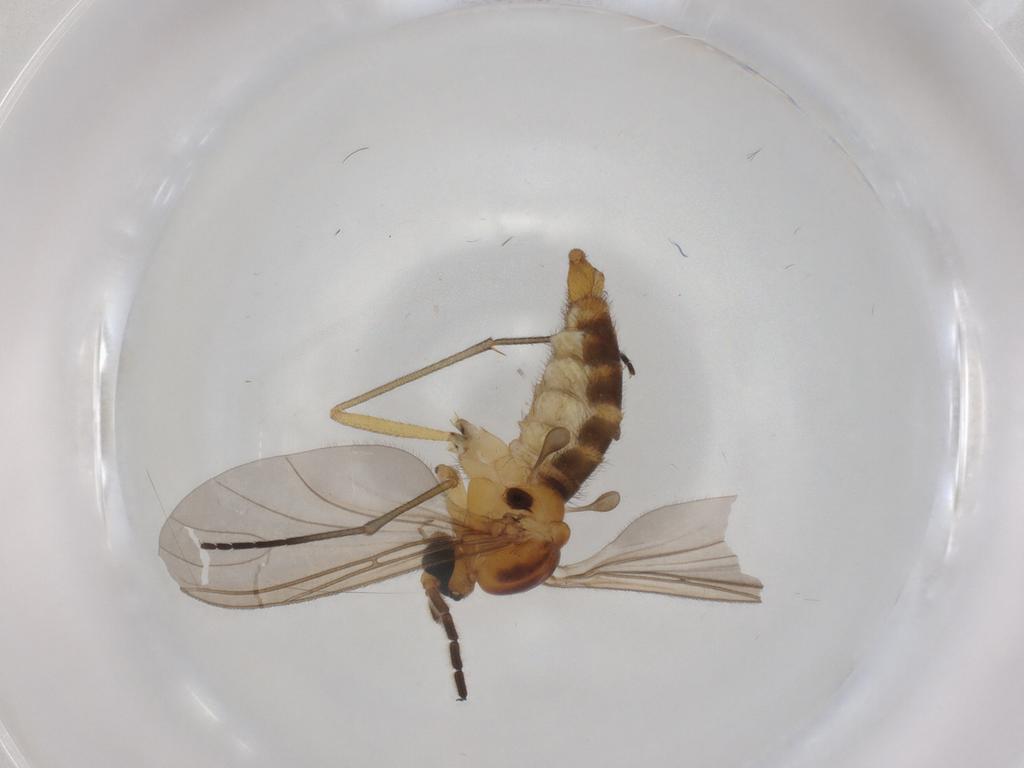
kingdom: Animalia
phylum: Arthropoda
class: Insecta
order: Diptera
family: Sciaridae
